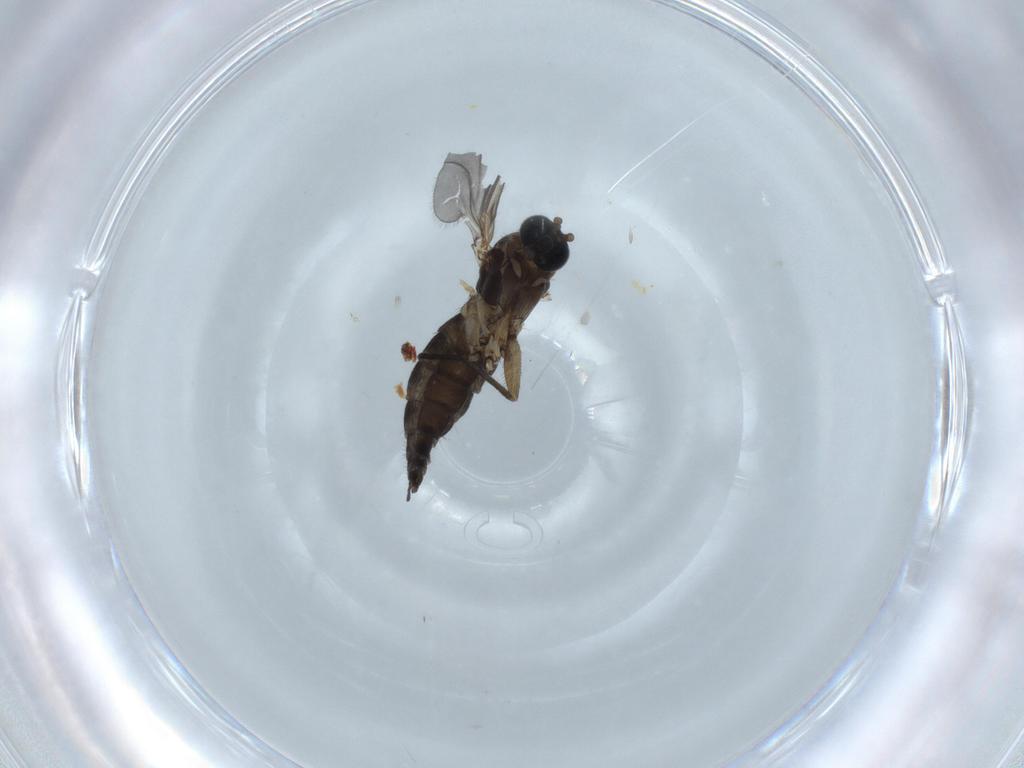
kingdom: Animalia
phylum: Arthropoda
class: Insecta
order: Diptera
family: Sciaridae
